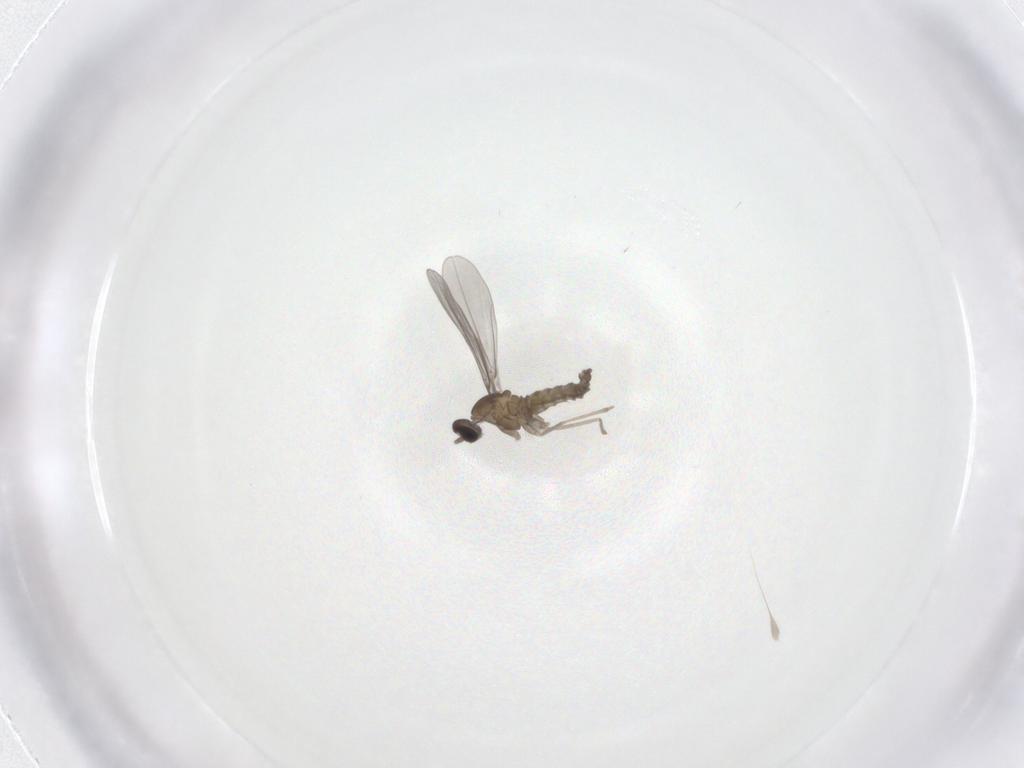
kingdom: Animalia
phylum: Arthropoda
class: Insecta
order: Diptera
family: Cecidomyiidae
